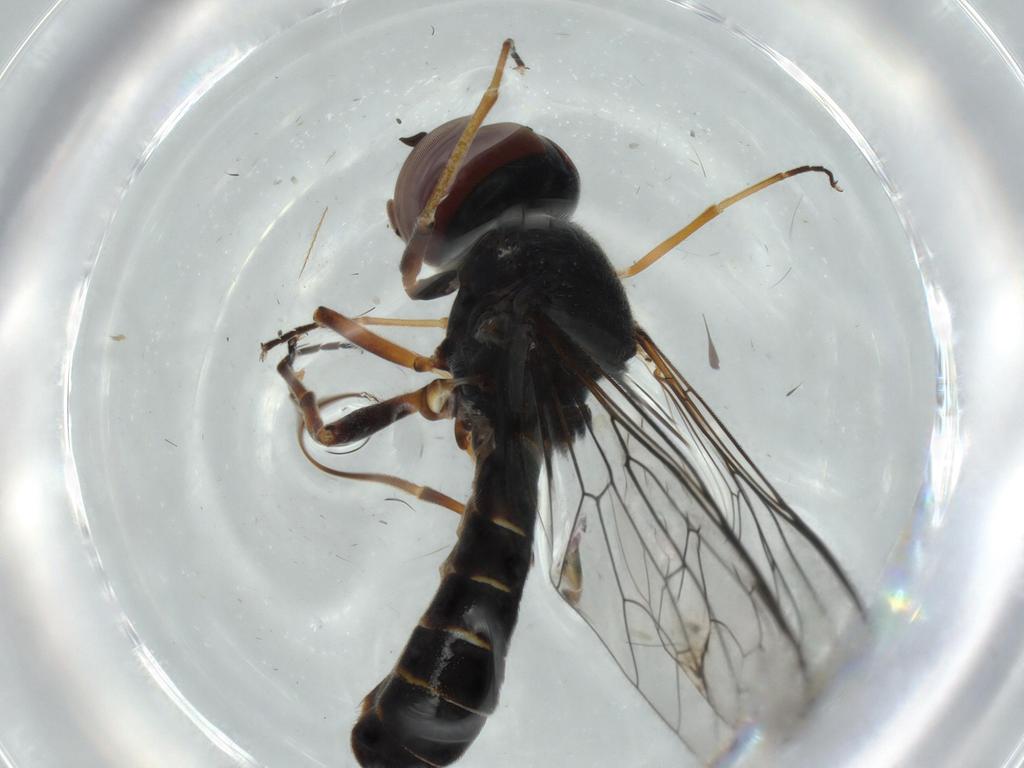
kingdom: Animalia
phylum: Arthropoda
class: Insecta
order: Diptera
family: Bombyliidae
